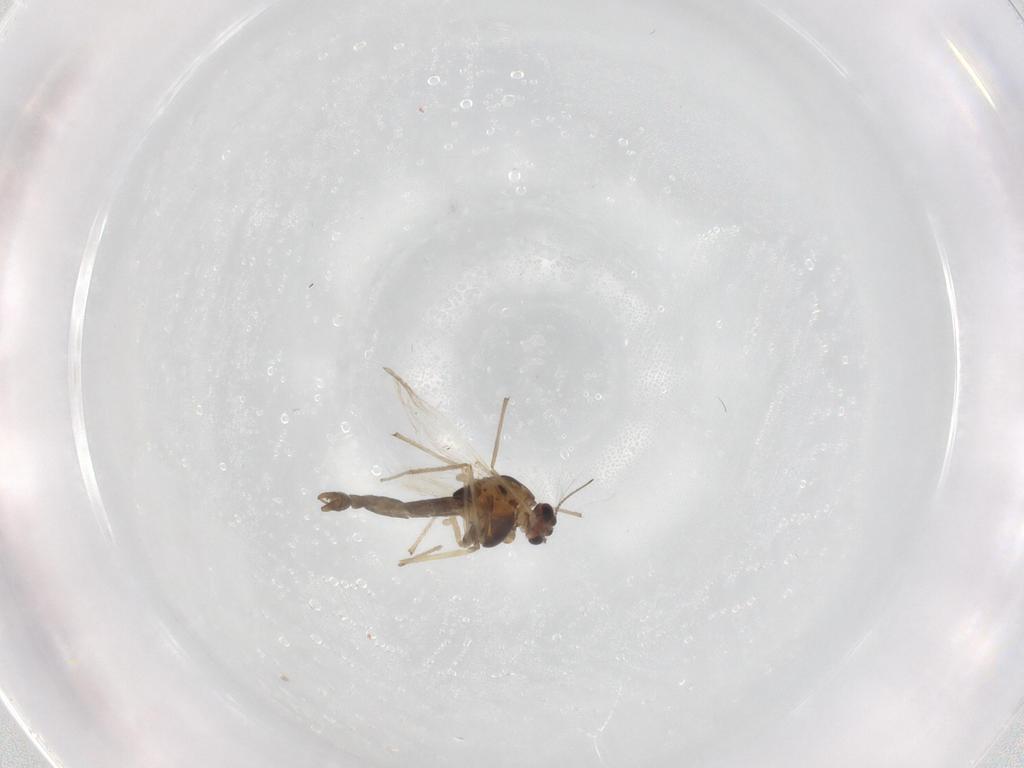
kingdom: Animalia
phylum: Arthropoda
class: Insecta
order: Diptera
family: Chironomidae
